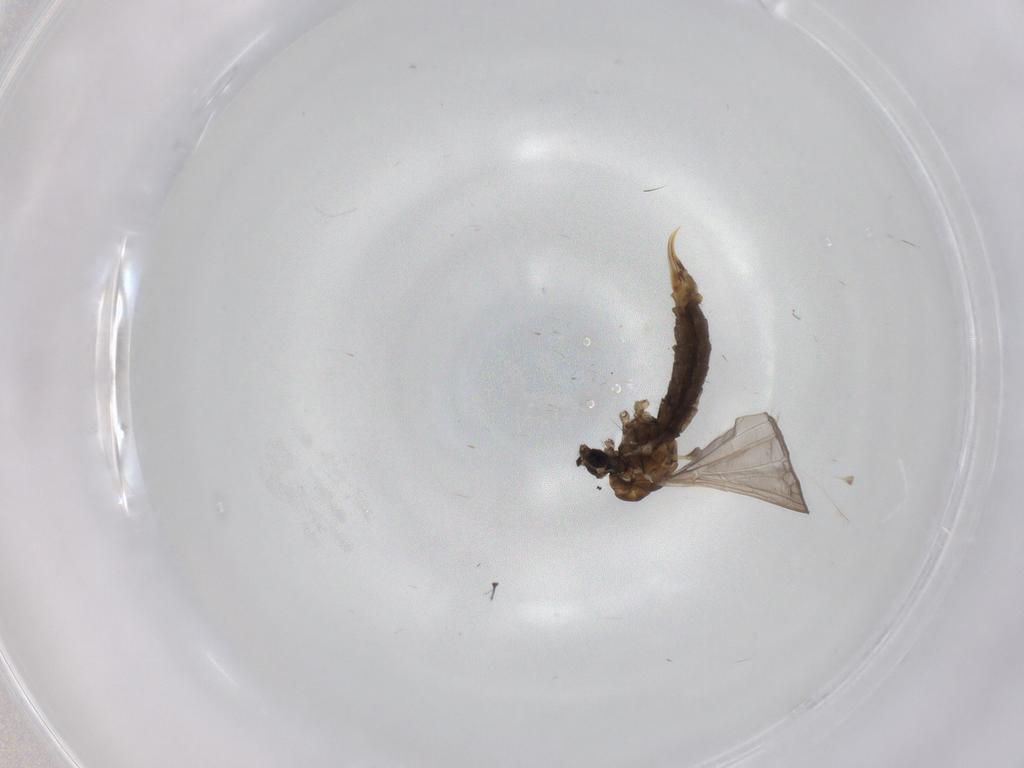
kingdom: Animalia
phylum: Arthropoda
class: Insecta
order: Diptera
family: Limoniidae
